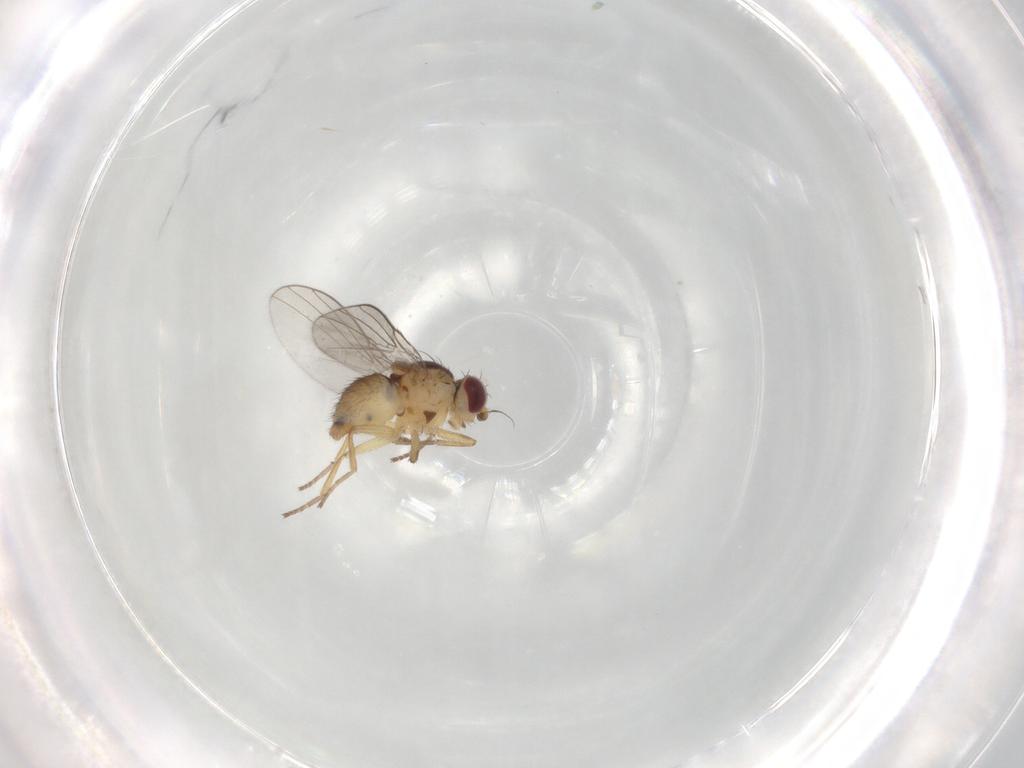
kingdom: Animalia
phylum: Arthropoda
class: Insecta
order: Diptera
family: Agromyzidae
